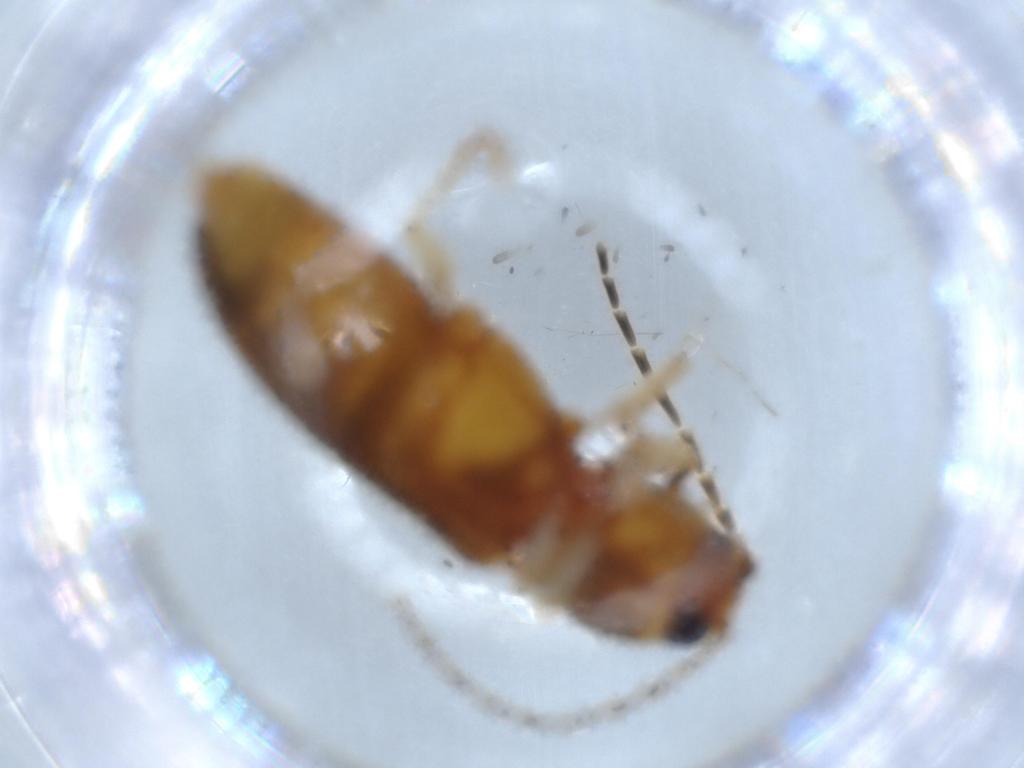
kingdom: Animalia
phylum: Arthropoda
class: Insecta
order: Coleoptera
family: Elateridae
